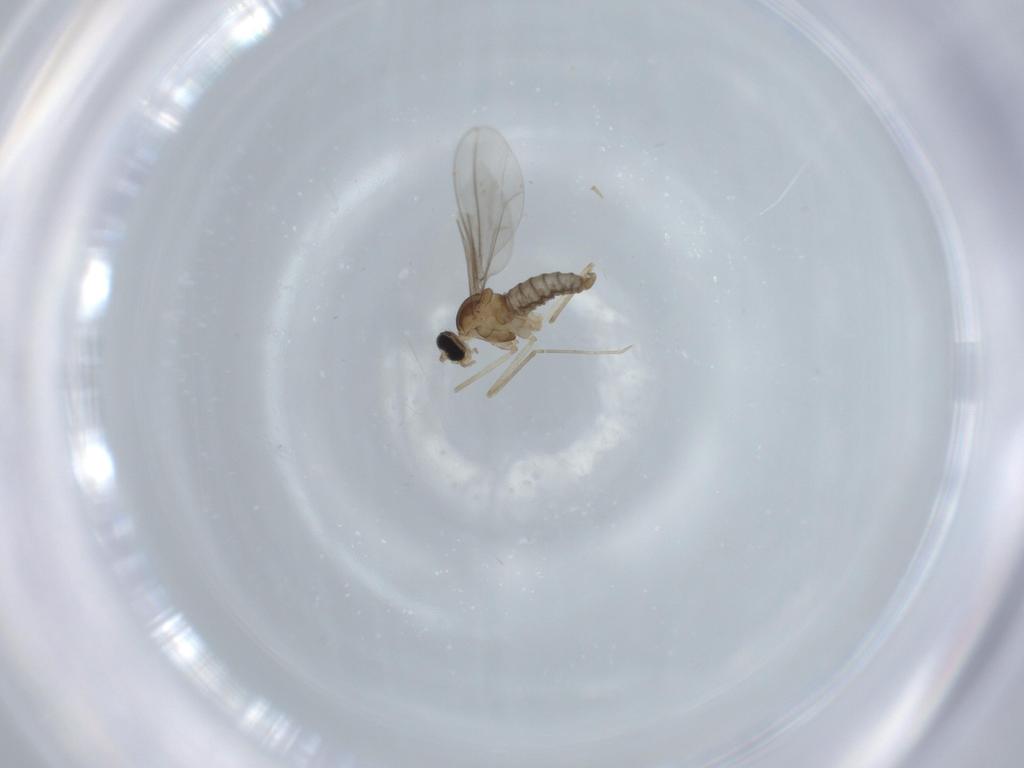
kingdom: Animalia
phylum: Arthropoda
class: Insecta
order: Diptera
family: Cecidomyiidae
